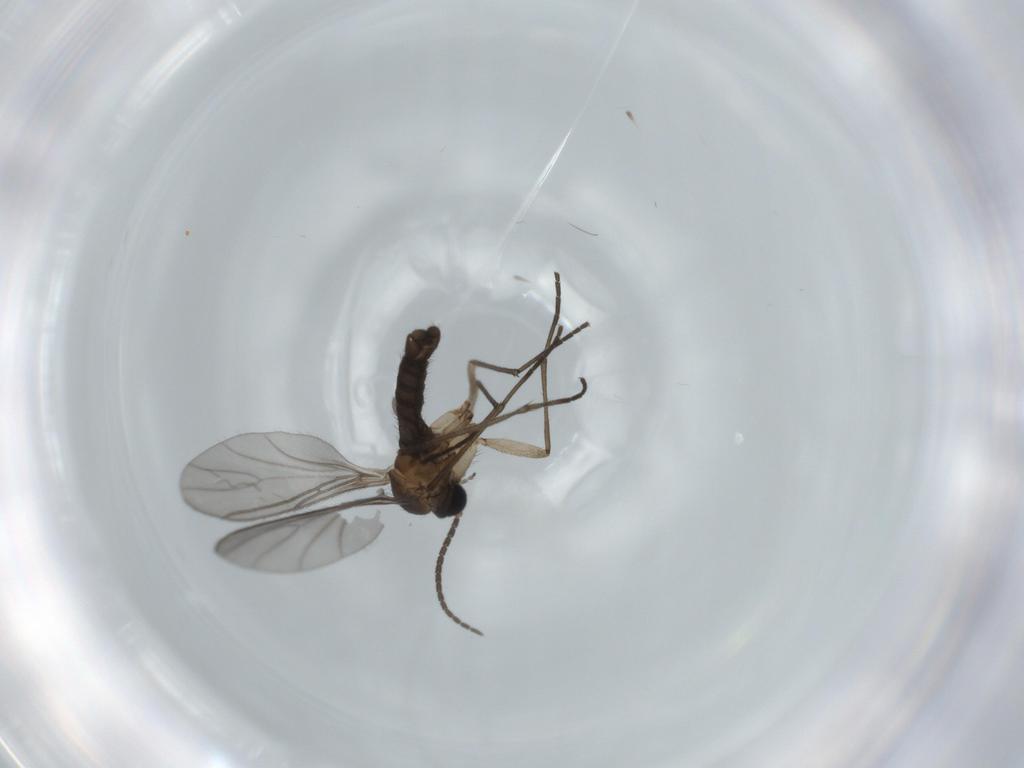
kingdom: Animalia
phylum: Arthropoda
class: Insecta
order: Diptera
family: Sciaridae
